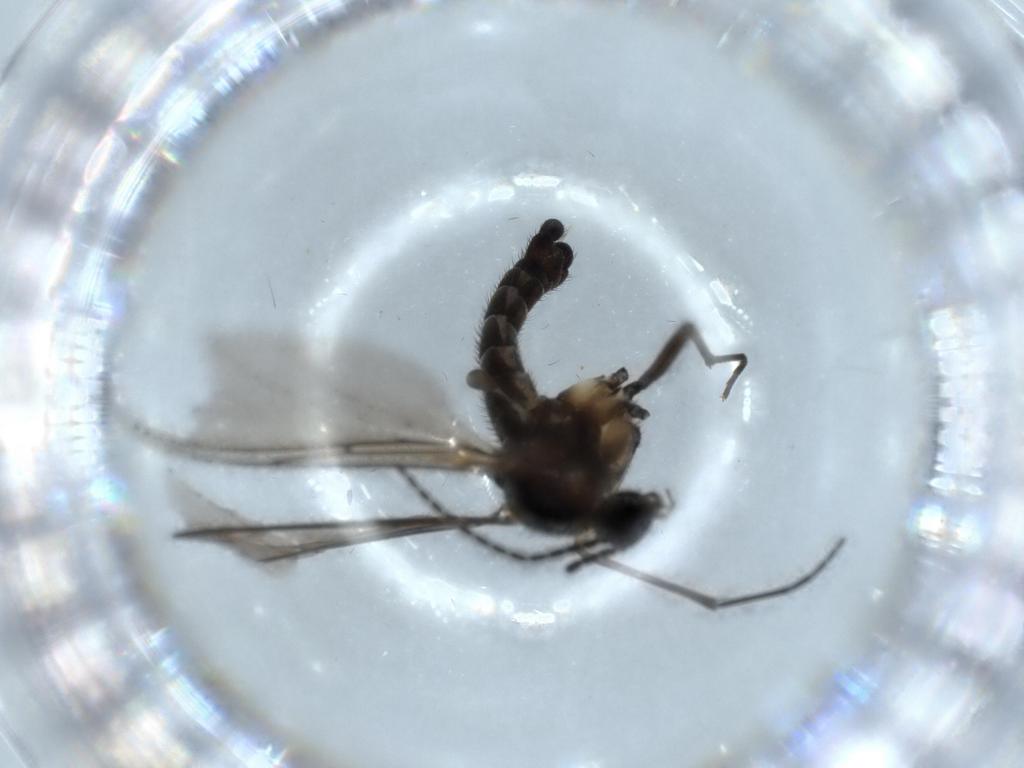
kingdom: Animalia
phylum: Arthropoda
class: Insecta
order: Diptera
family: Sciaridae
